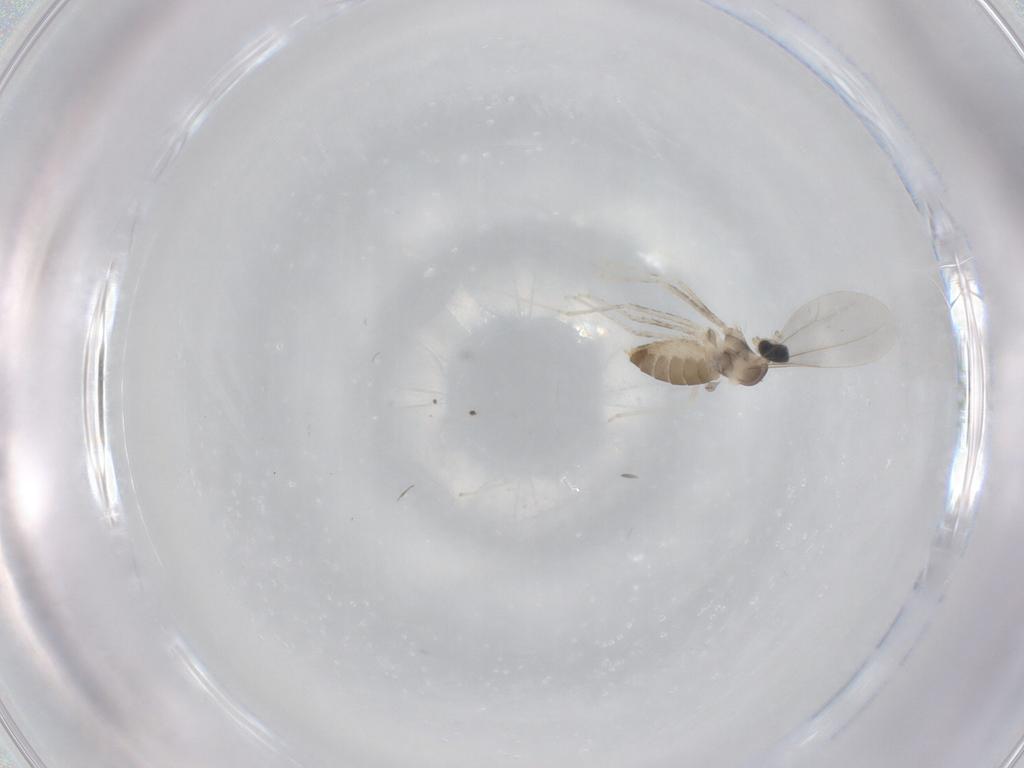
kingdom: Animalia
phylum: Arthropoda
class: Insecta
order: Diptera
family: Cecidomyiidae
